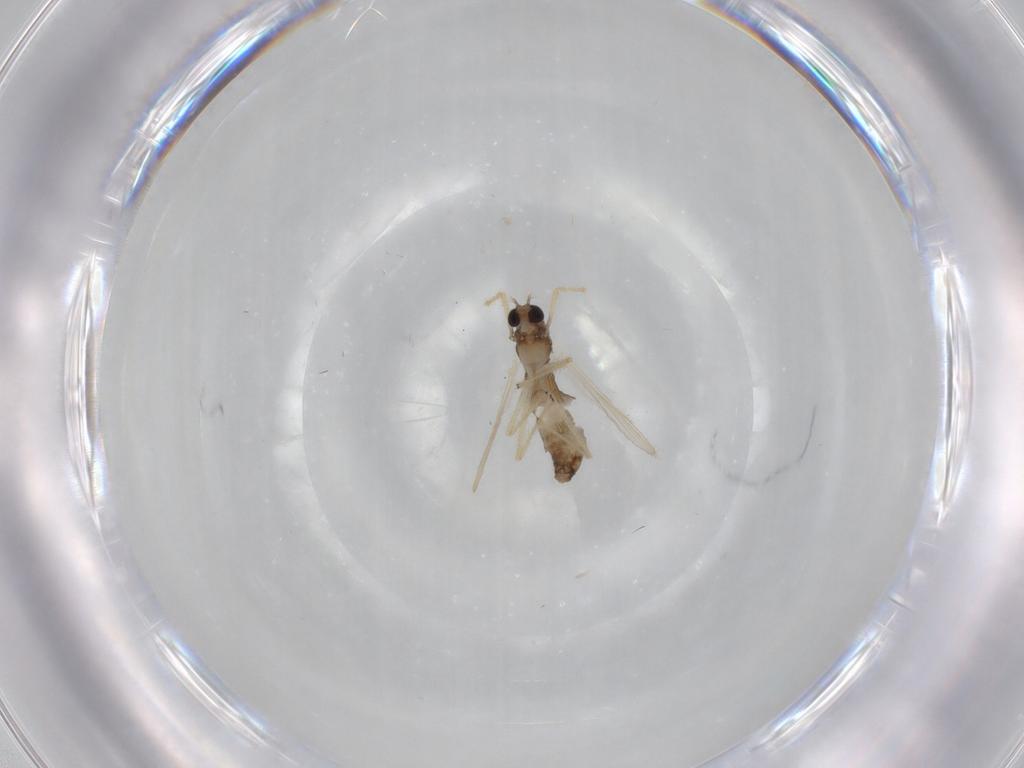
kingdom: Animalia
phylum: Arthropoda
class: Insecta
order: Diptera
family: Chironomidae
